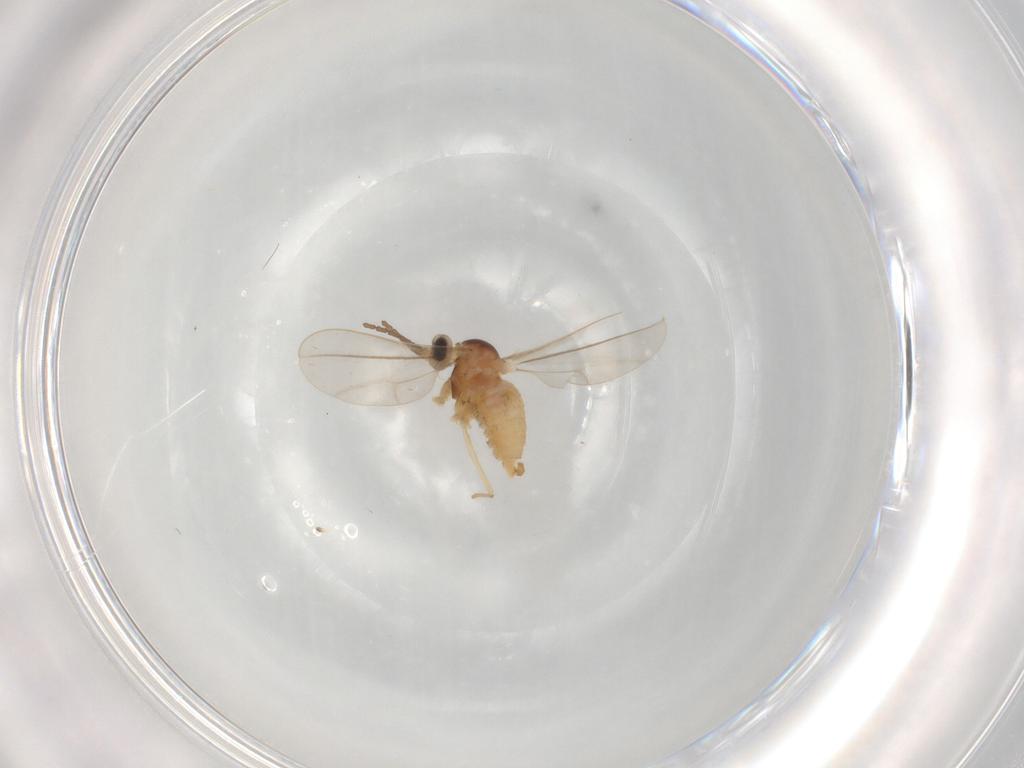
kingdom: Animalia
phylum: Arthropoda
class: Insecta
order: Diptera
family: Cecidomyiidae
